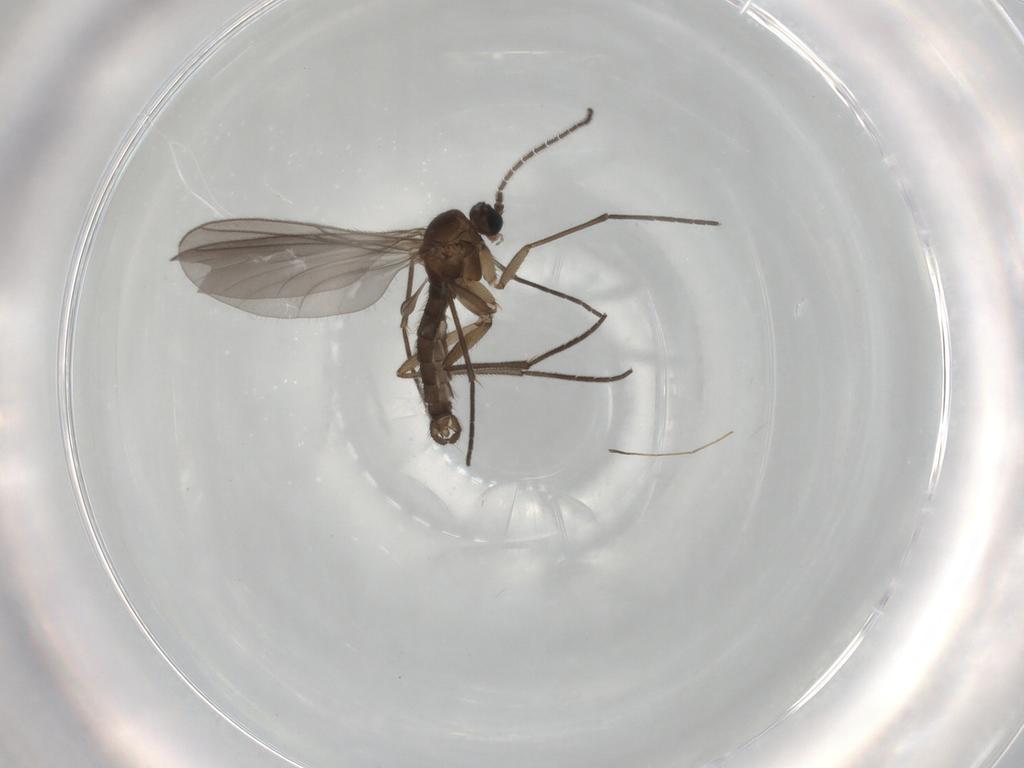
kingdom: Animalia
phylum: Arthropoda
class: Insecta
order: Diptera
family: Sciaridae
